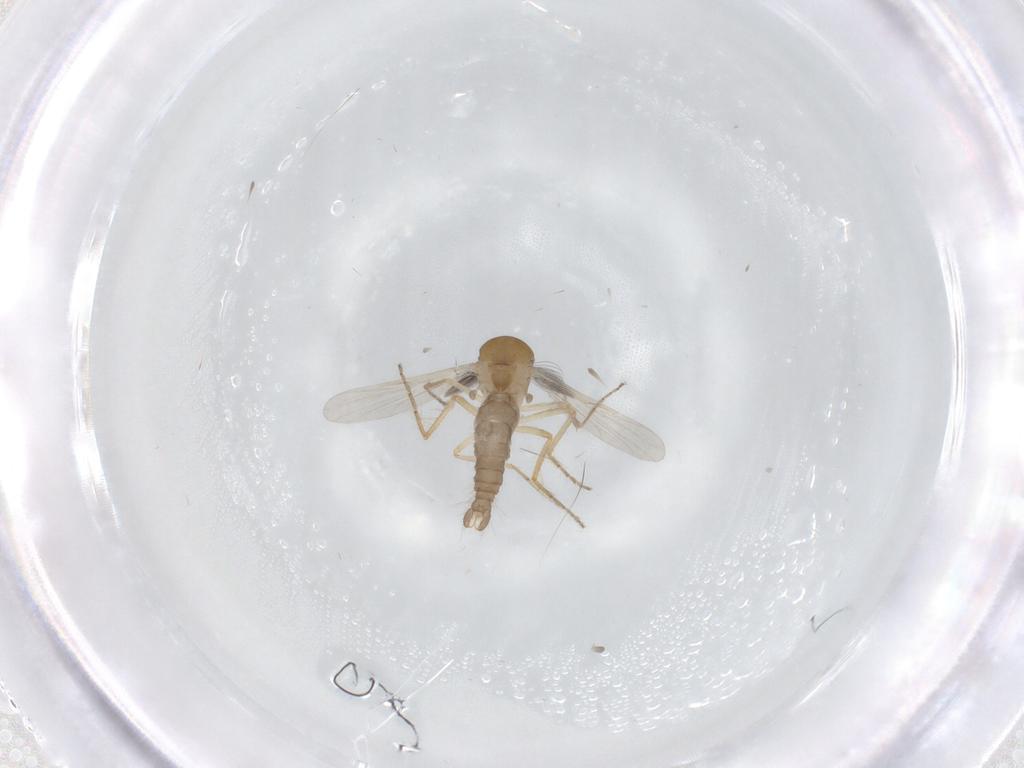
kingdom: Animalia
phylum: Arthropoda
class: Insecta
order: Diptera
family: Ceratopogonidae
